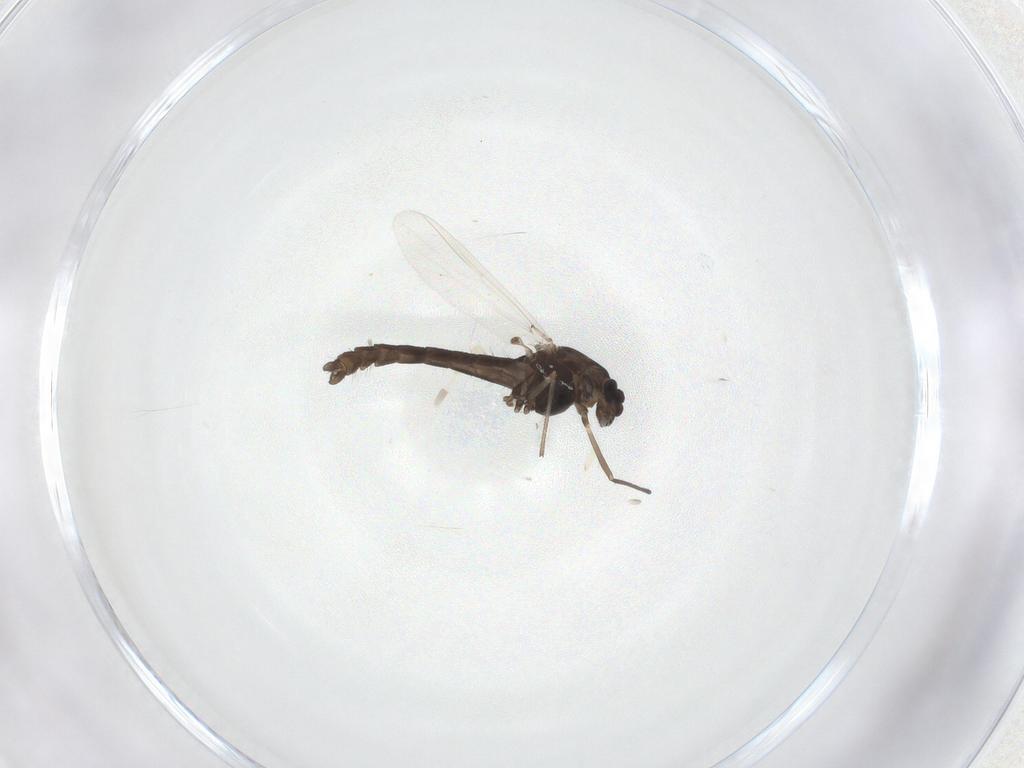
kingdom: Animalia
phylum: Arthropoda
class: Insecta
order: Diptera
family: Chironomidae
